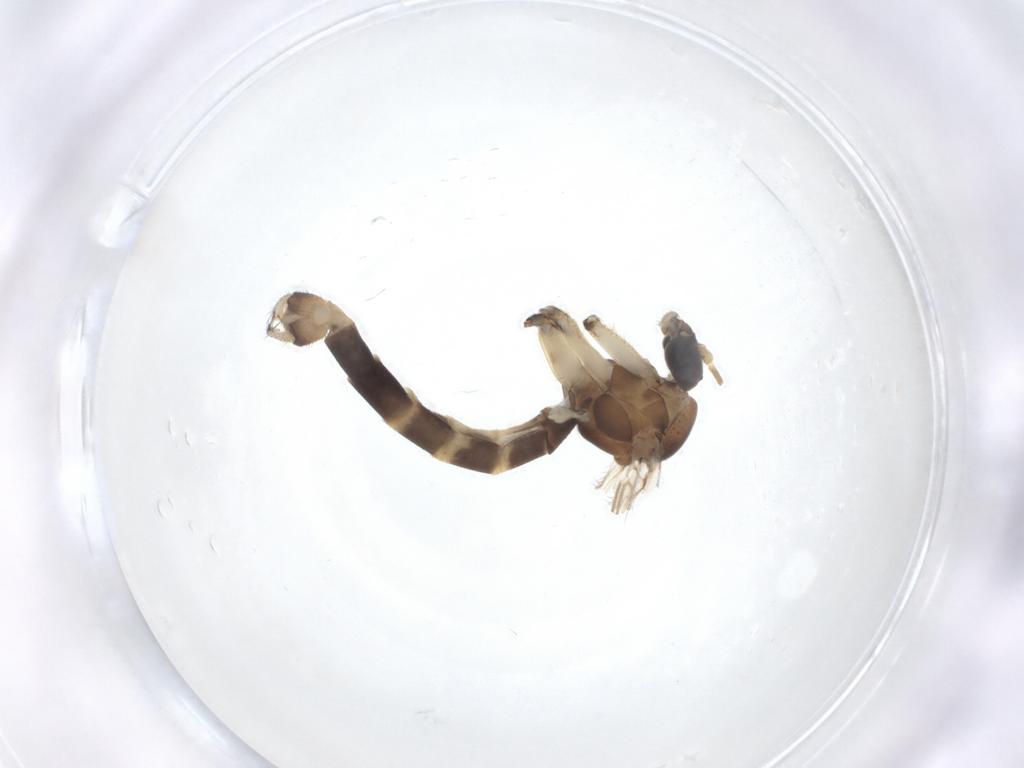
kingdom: Animalia
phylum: Arthropoda
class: Insecta
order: Diptera
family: Mycetophilidae
